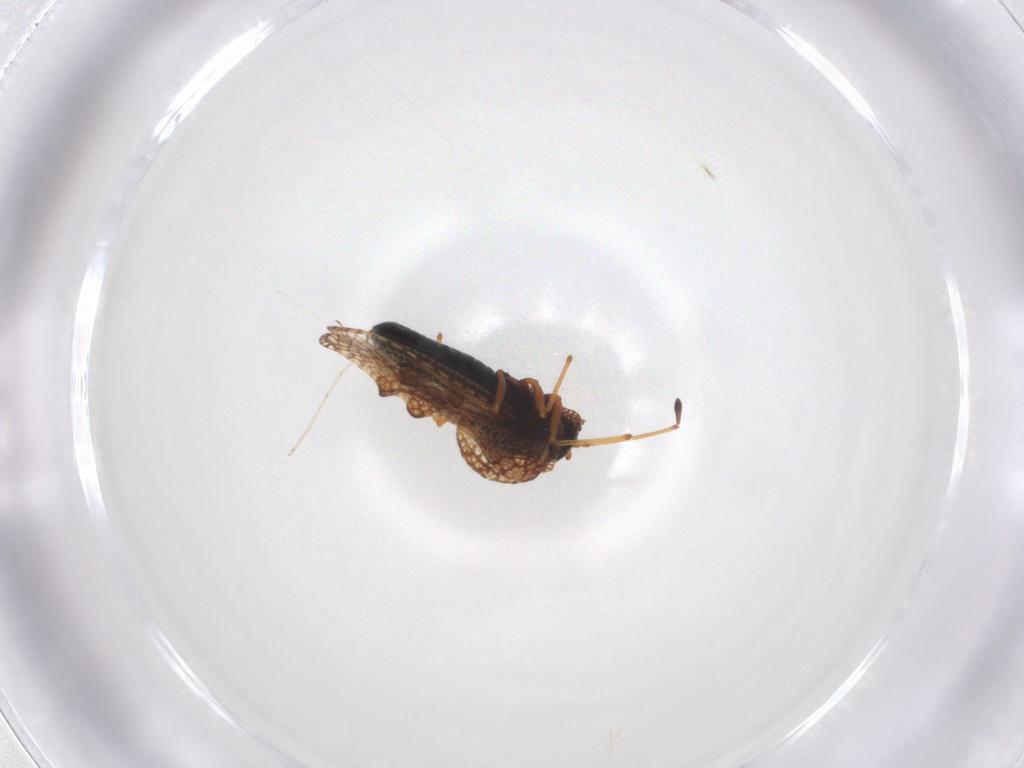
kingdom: Animalia
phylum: Arthropoda
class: Insecta
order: Hemiptera
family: Tingidae
